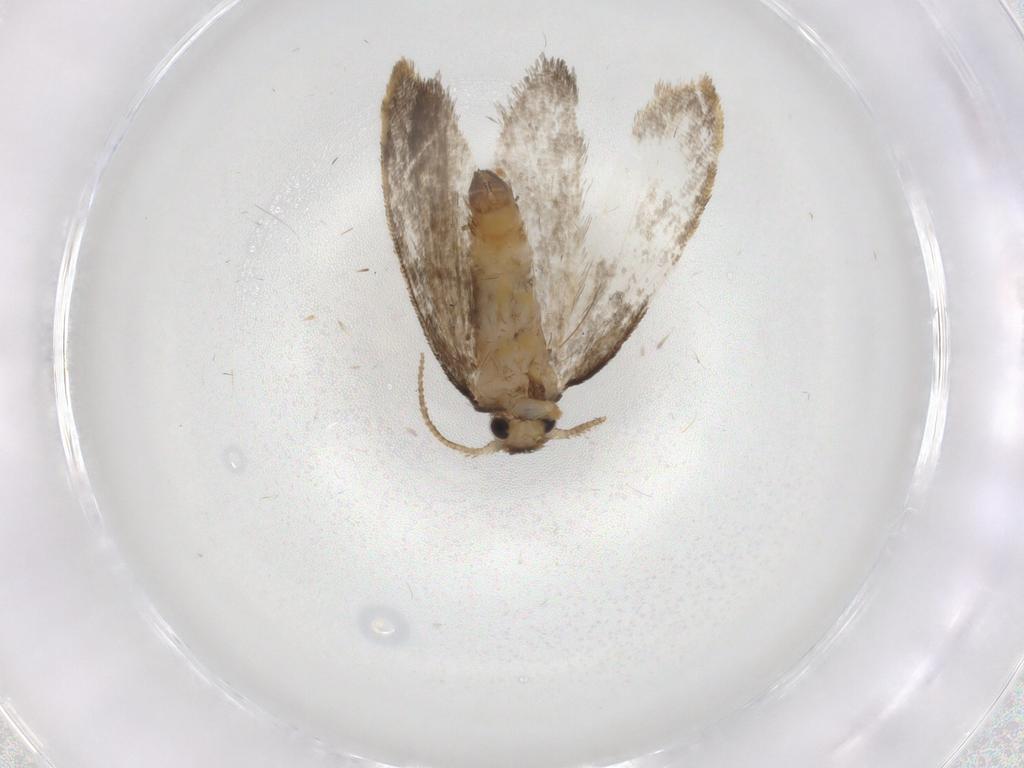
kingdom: Animalia
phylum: Arthropoda
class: Insecta
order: Lepidoptera
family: Psychidae
